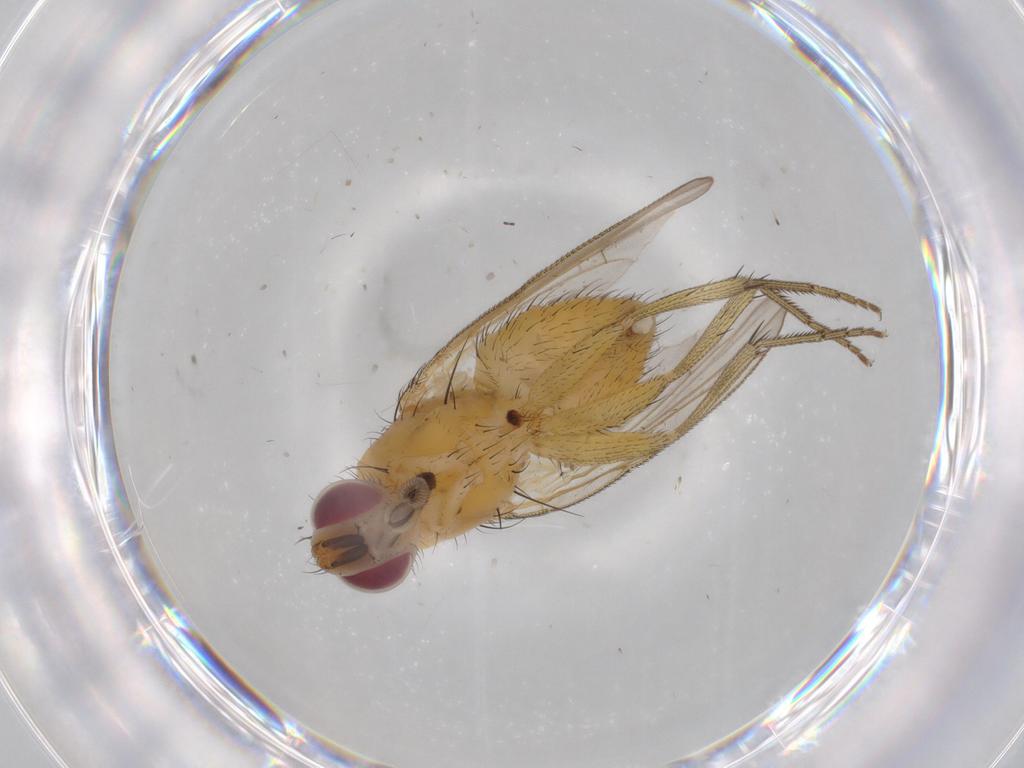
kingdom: Animalia
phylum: Arthropoda
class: Insecta
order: Diptera
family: Muscidae
